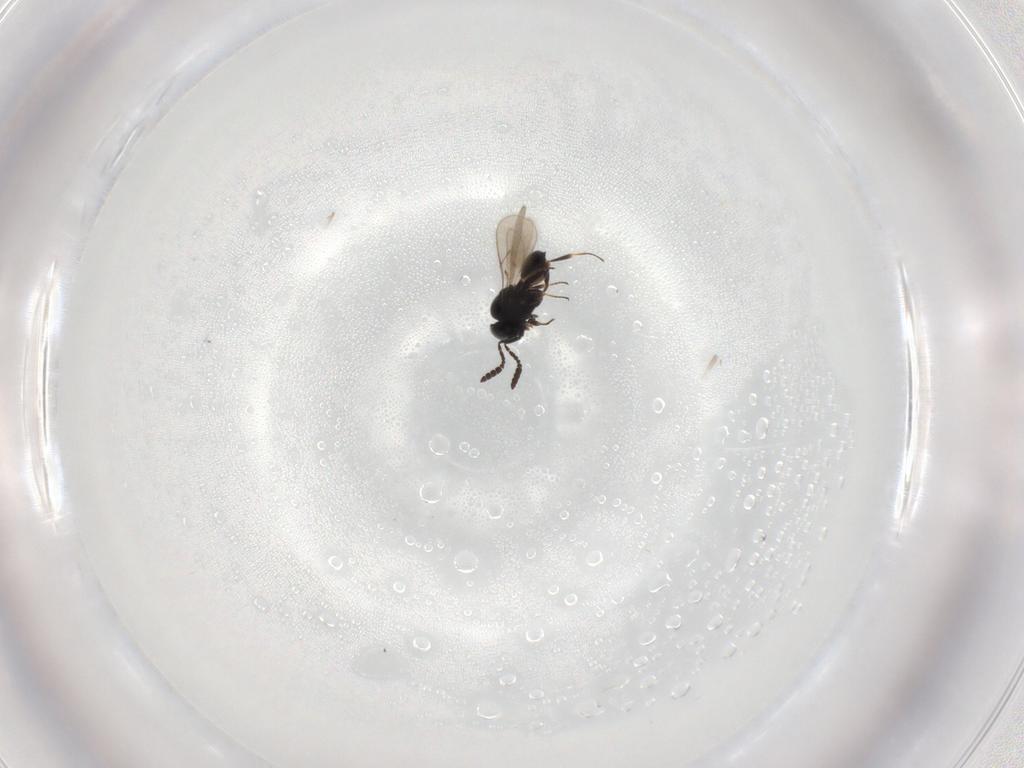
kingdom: Animalia
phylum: Arthropoda
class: Insecta
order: Hymenoptera
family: Scelionidae
